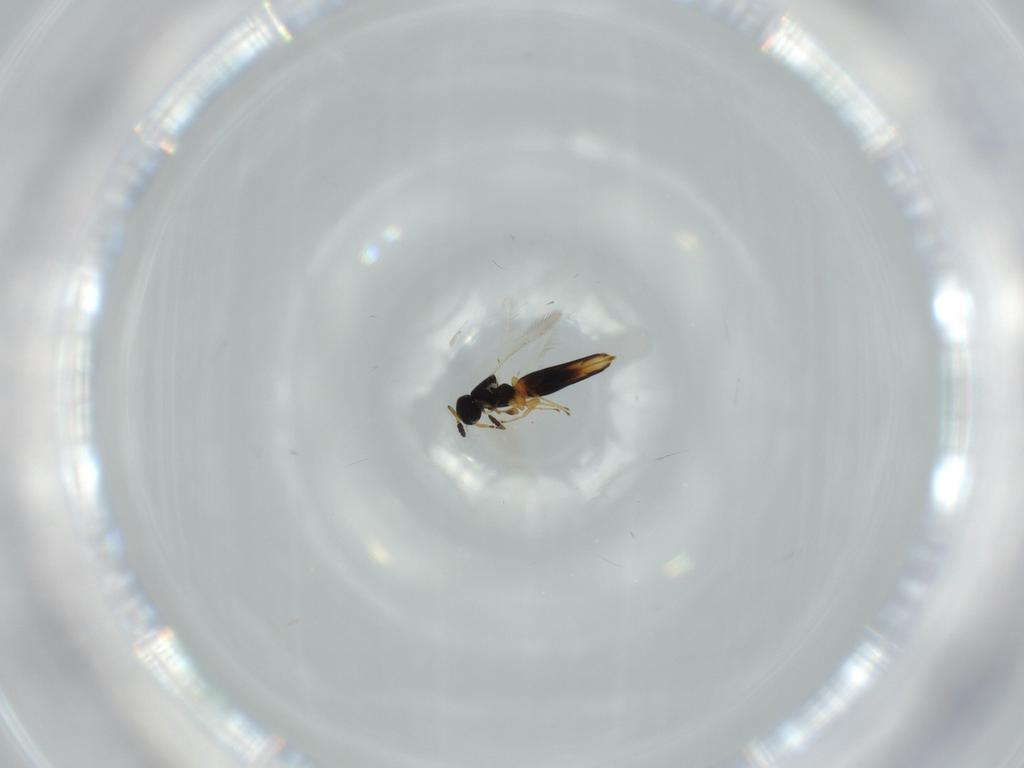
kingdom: Animalia
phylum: Arthropoda
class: Insecta
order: Hymenoptera
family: Scelionidae
